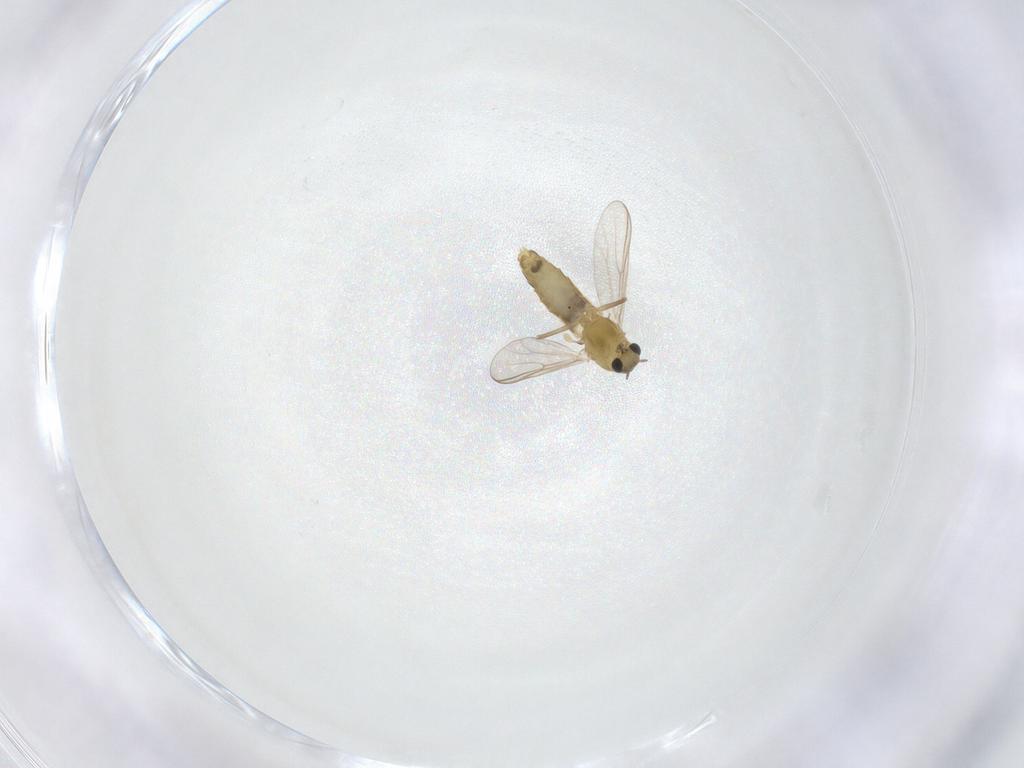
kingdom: Animalia
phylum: Arthropoda
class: Insecta
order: Diptera
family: Chironomidae
